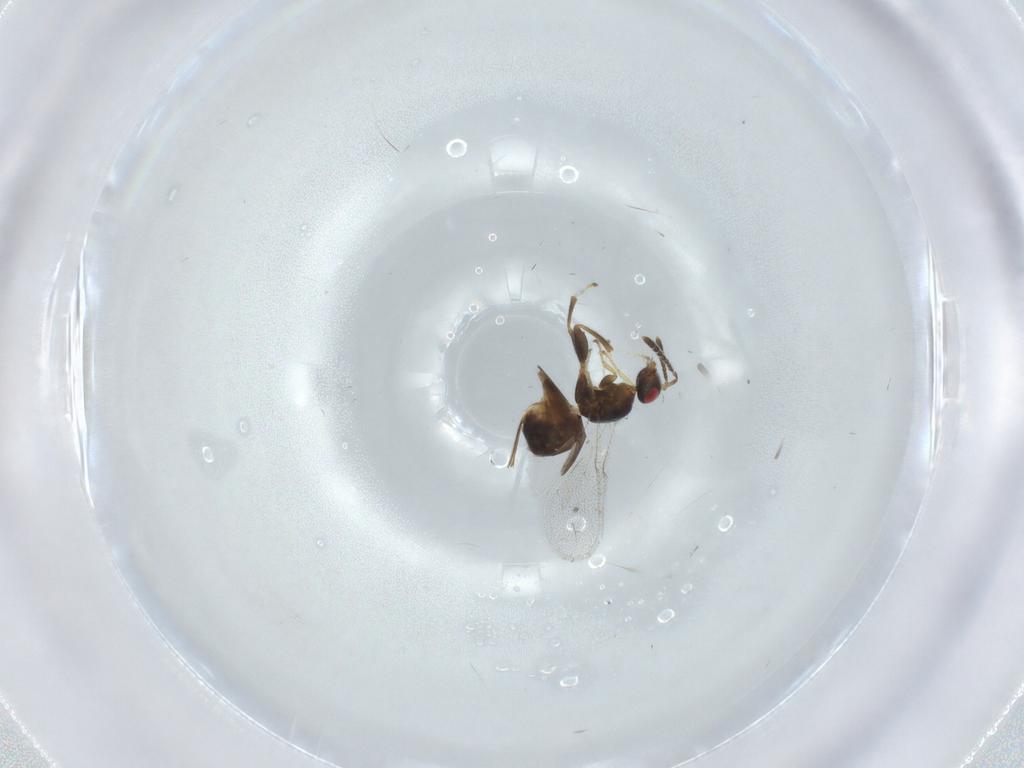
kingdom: Animalia
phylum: Arthropoda
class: Insecta
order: Hymenoptera
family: Torymidae
